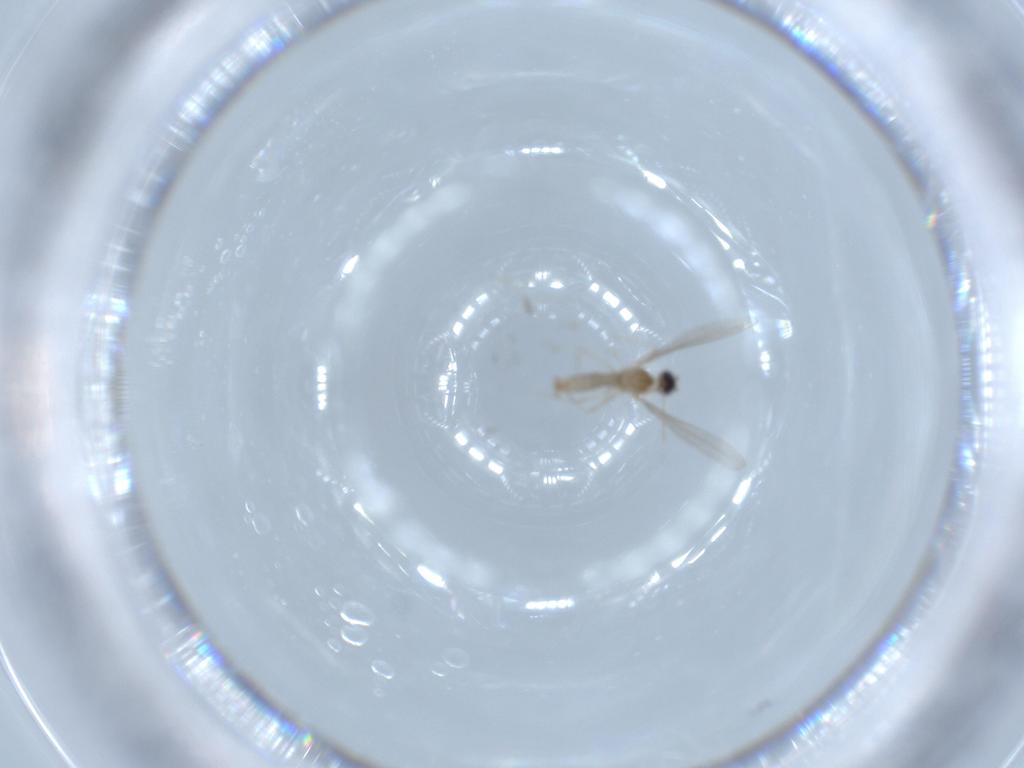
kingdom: Animalia
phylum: Arthropoda
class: Insecta
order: Diptera
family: Cecidomyiidae
